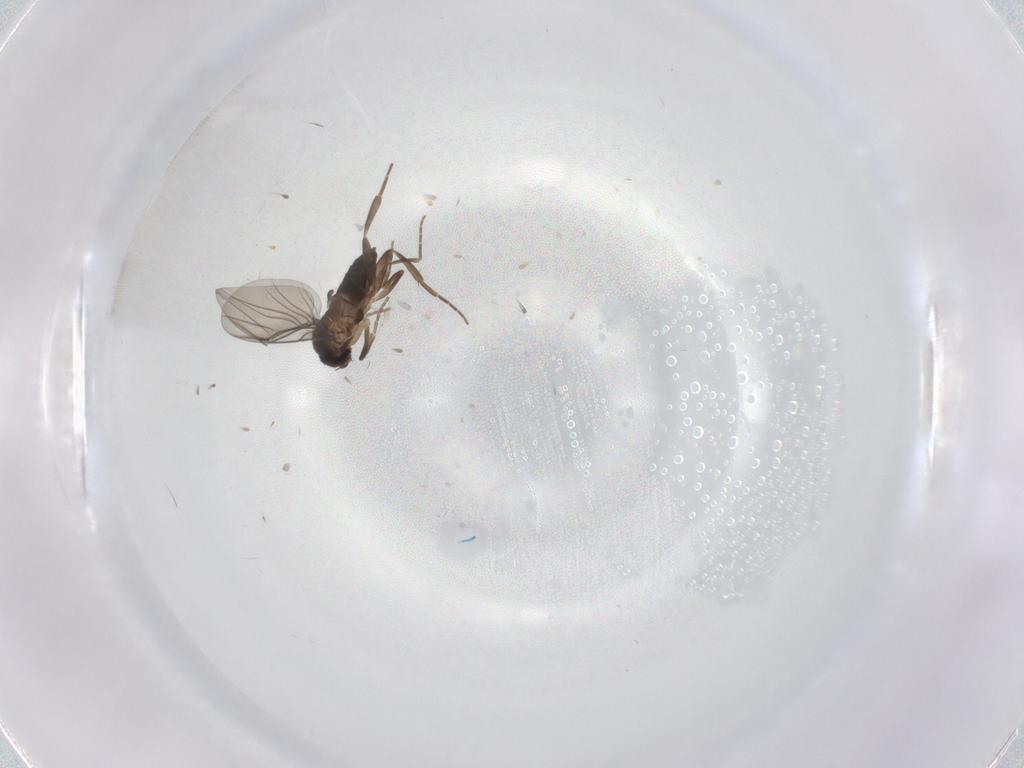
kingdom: Animalia
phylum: Arthropoda
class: Insecta
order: Diptera
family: Phoridae
